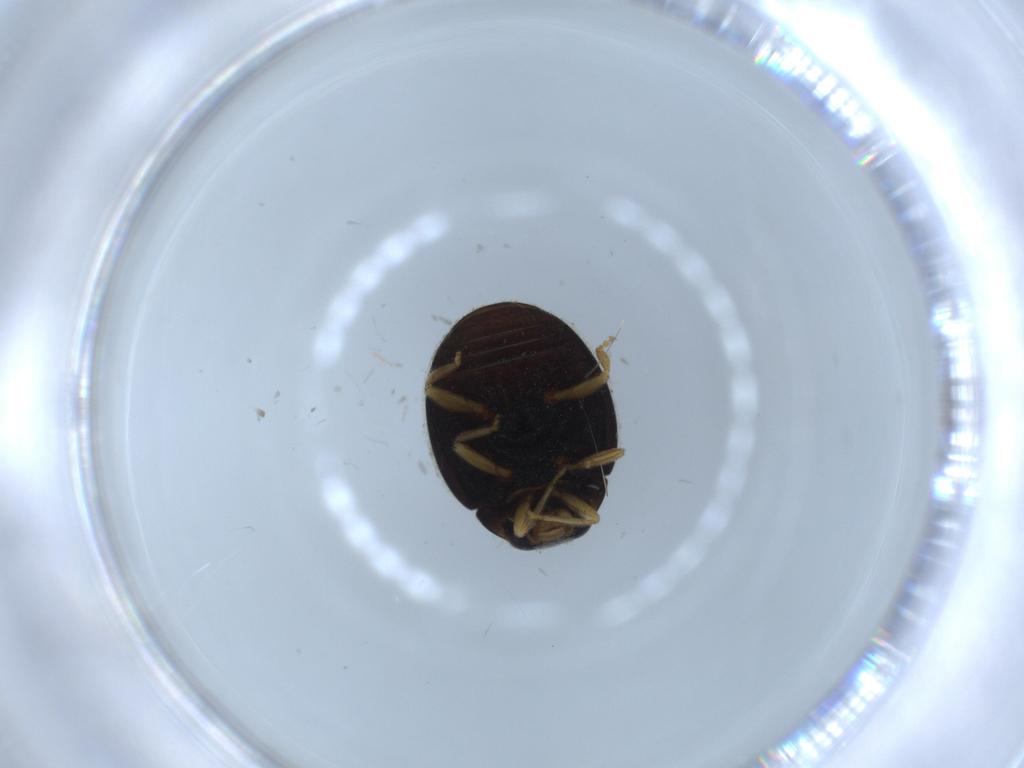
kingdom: Animalia
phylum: Arthropoda
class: Insecta
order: Coleoptera
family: Coccinellidae
